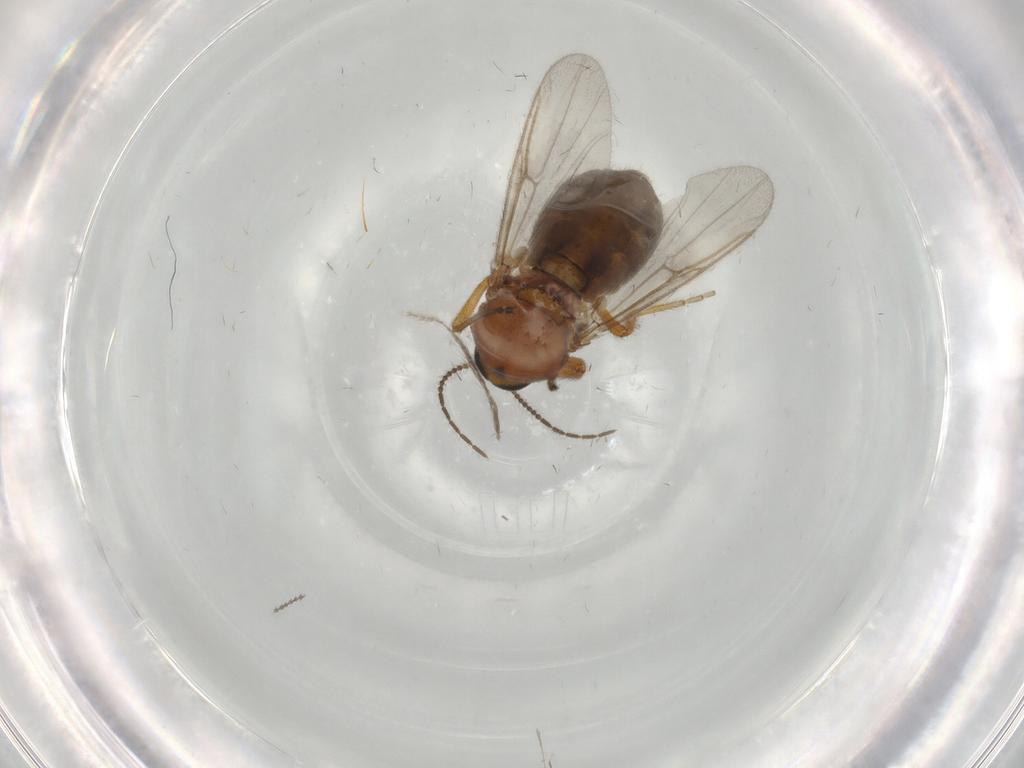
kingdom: Animalia
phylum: Arthropoda
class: Insecta
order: Diptera
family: Ceratopogonidae
